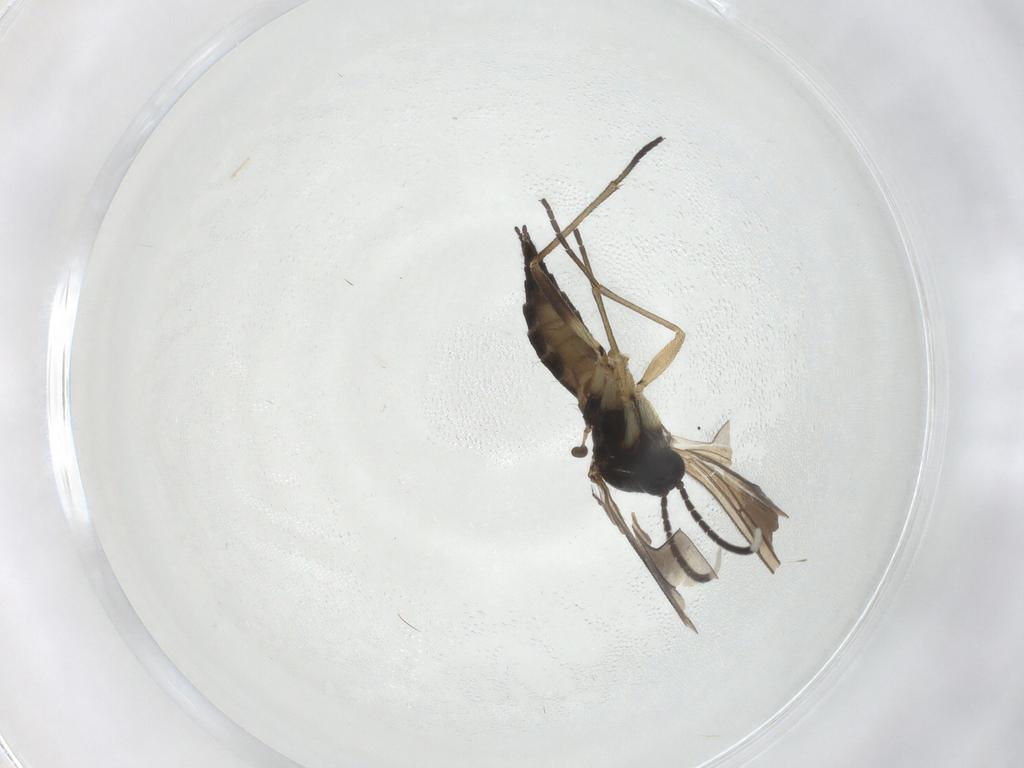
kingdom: Animalia
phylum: Arthropoda
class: Insecta
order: Diptera
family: Sciaridae
